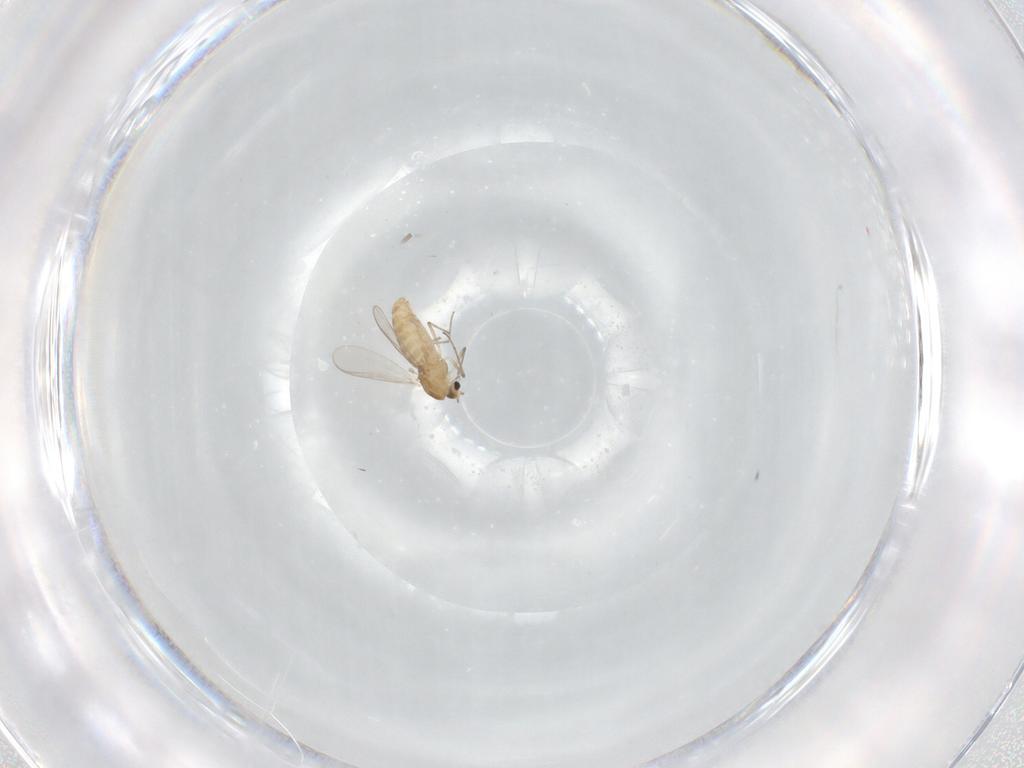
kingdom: Animalia
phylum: Arthropoda
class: Insecta
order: Diptera
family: Chironomidae
